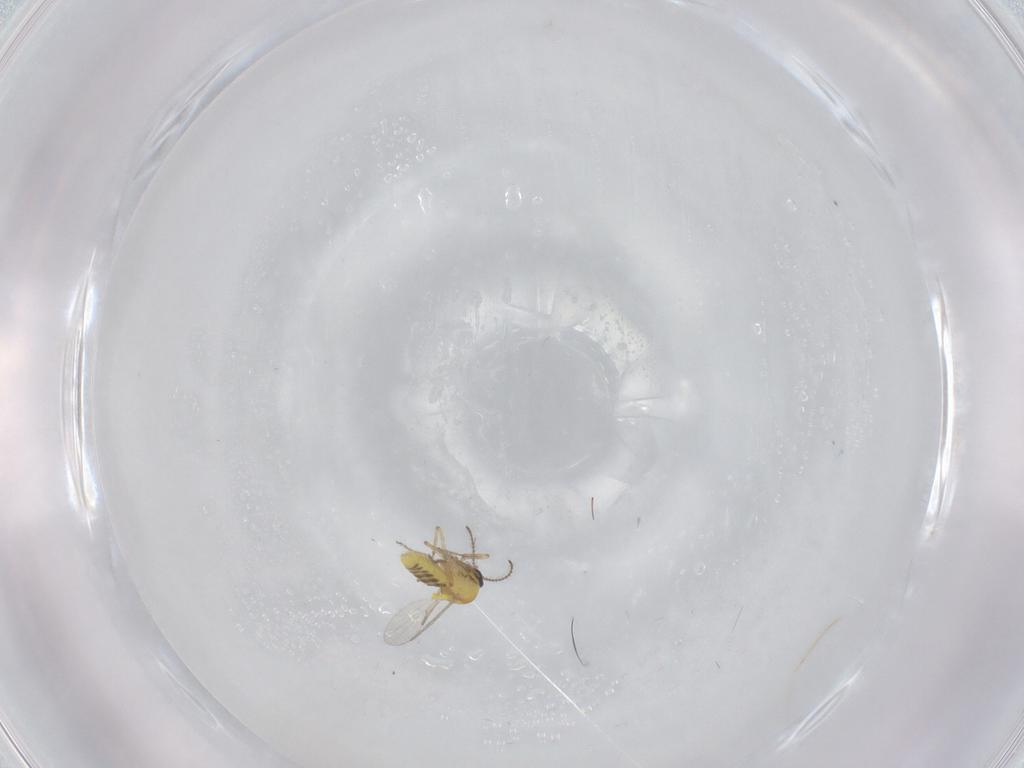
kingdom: Animalia
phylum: Arthropoda
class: Insecta
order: Diptera
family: Psychodidae
